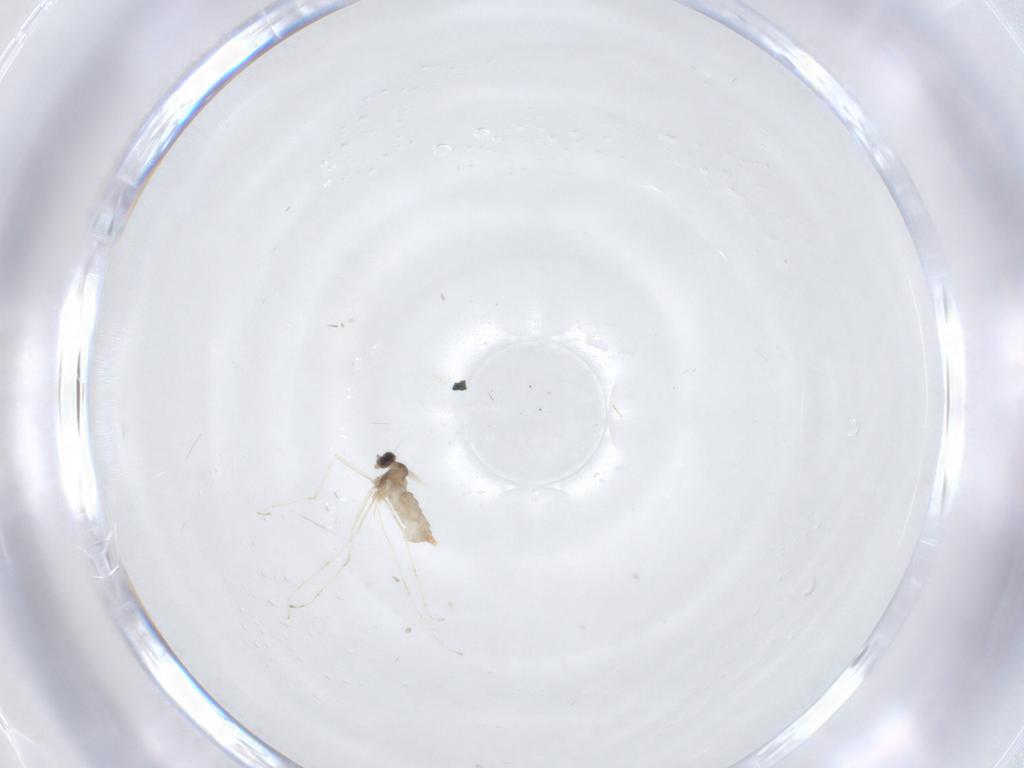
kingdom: Animalia
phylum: Arthropoda
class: Insecta
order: Diptera
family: Cecidomyiidae
